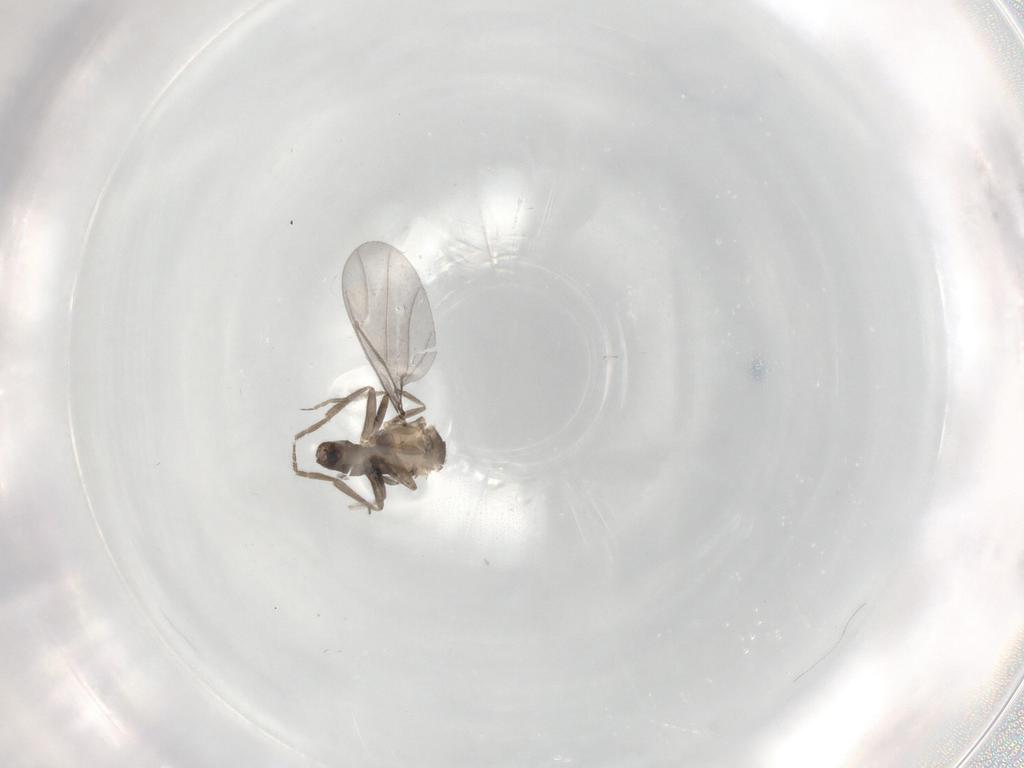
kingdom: Animalia
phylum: Arthropoda
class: Insecta
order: Diptera
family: Phoridae
